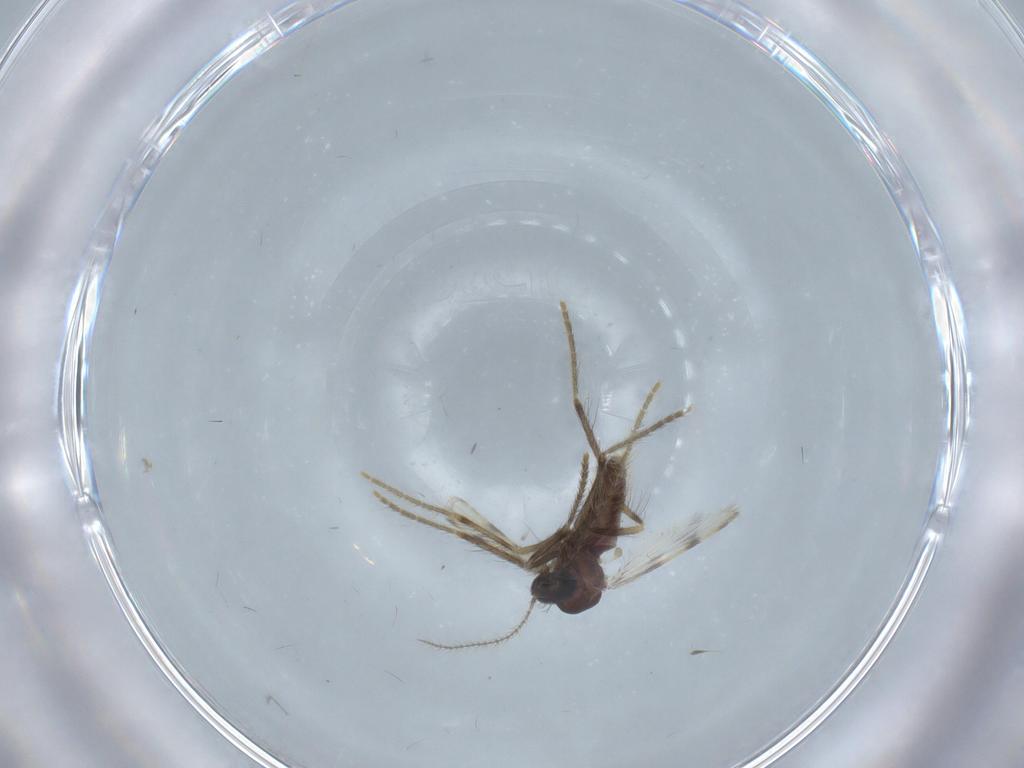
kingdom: Animalia
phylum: Arthropoda
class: Insecta
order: Diptera
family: Corethrellidae
